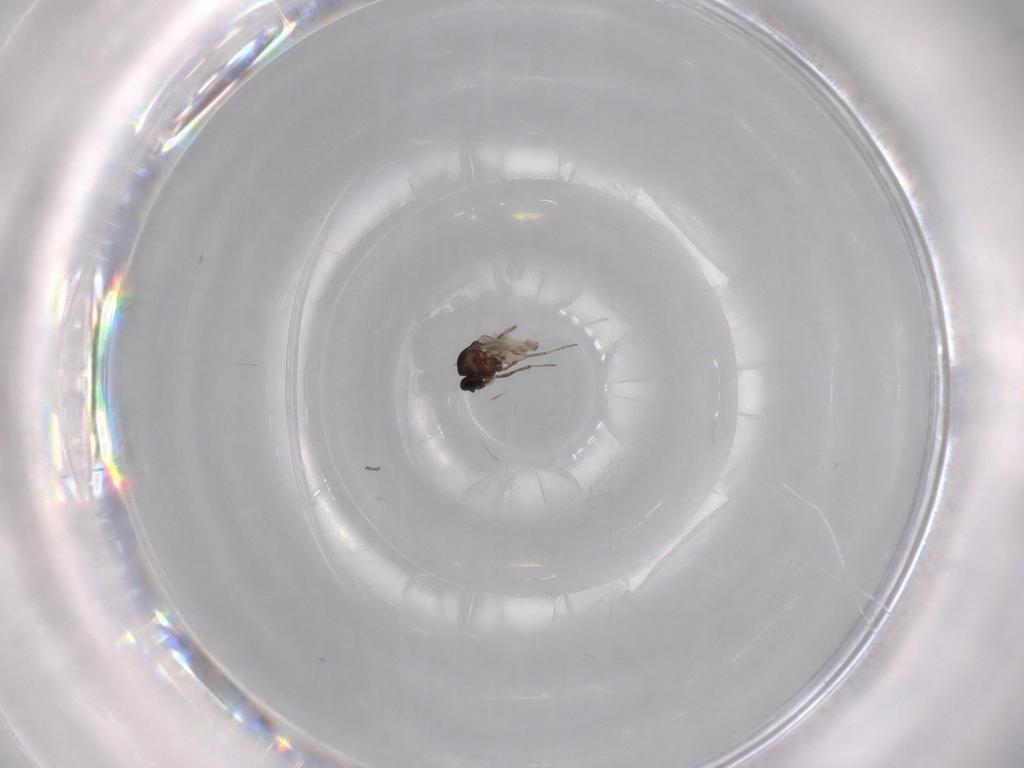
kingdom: Animalia
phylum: Arthropoda
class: Insecta
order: Diptera
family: Ceratopogonidae
